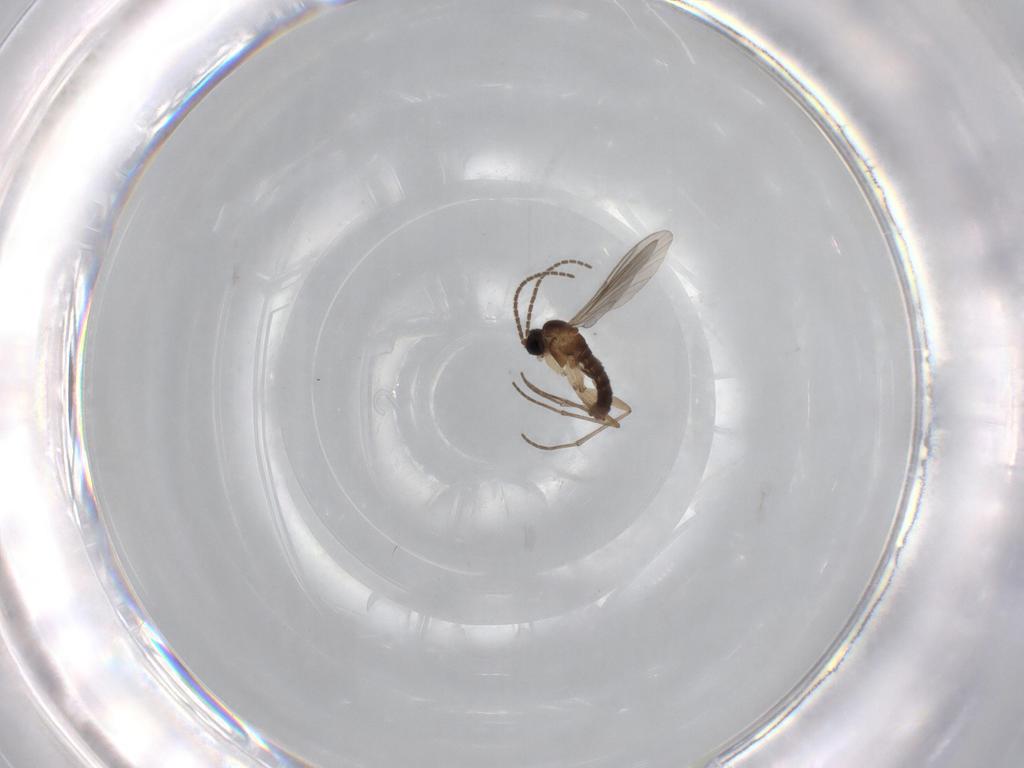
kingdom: Animalia
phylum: Arthropoda
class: Insecta
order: Diptera
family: Sciaridae
